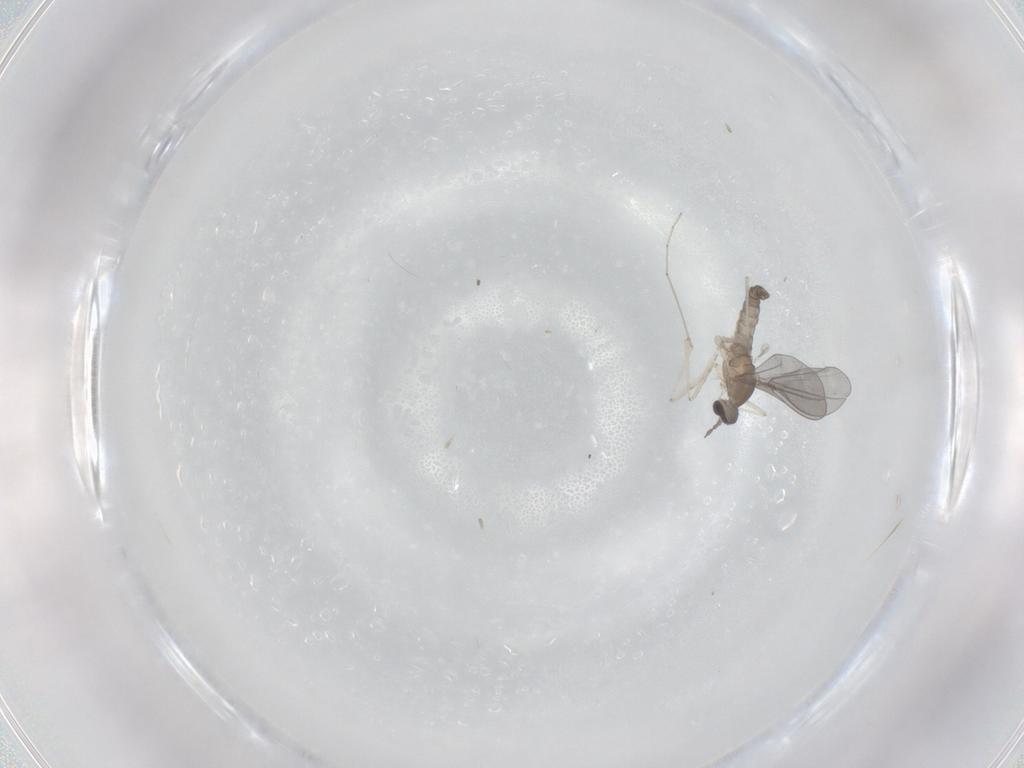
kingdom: Animalia
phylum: Arthropoda
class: Insecta
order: Diptera
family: Cecidomyiidae
